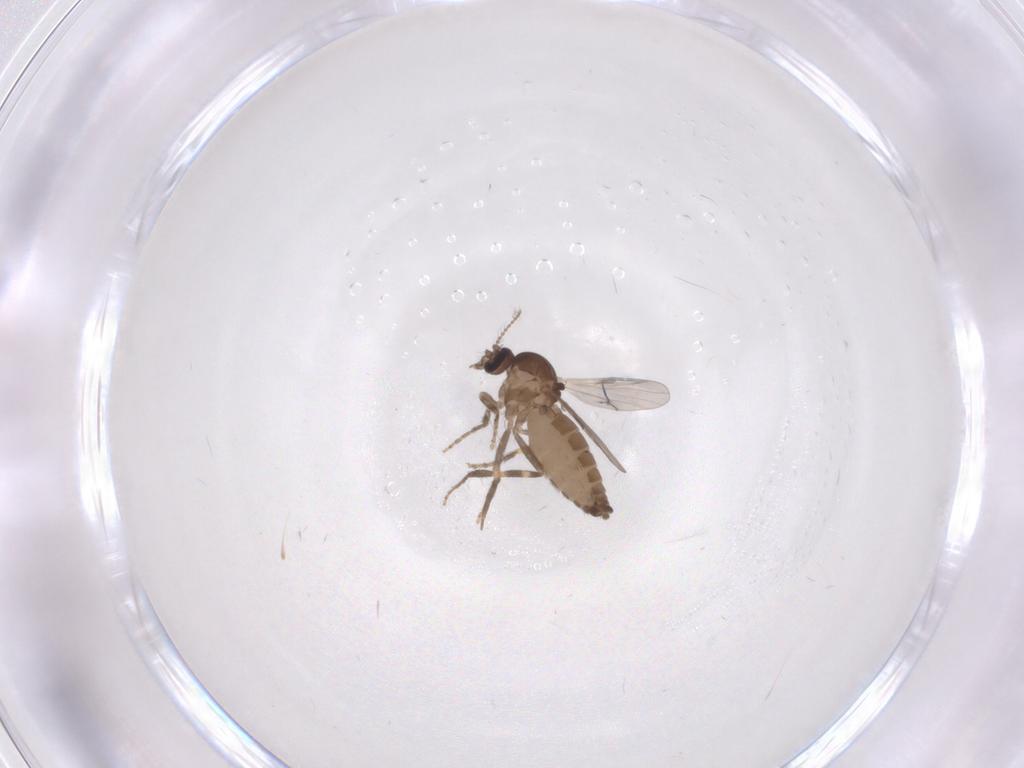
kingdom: Animalia
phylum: Arthropoda
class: Insecta
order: Diptera
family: Ceratopogonidae
